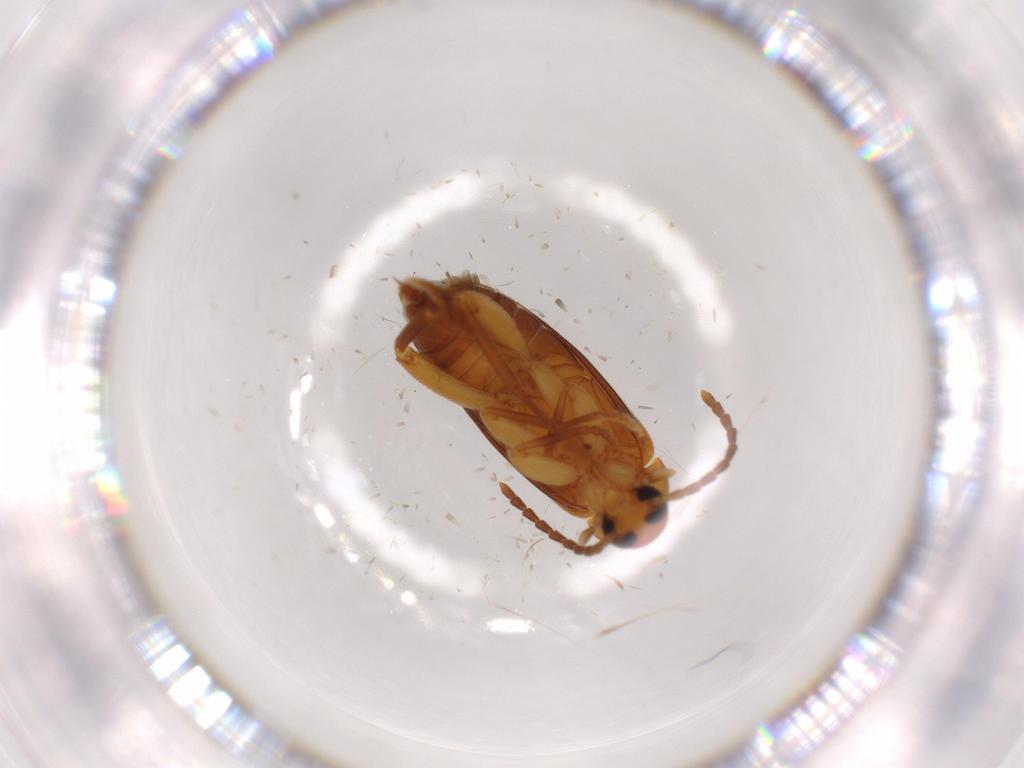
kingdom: Animalia
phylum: Arthropoda
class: Insecta
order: Coleoptera
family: Scraptiidae
